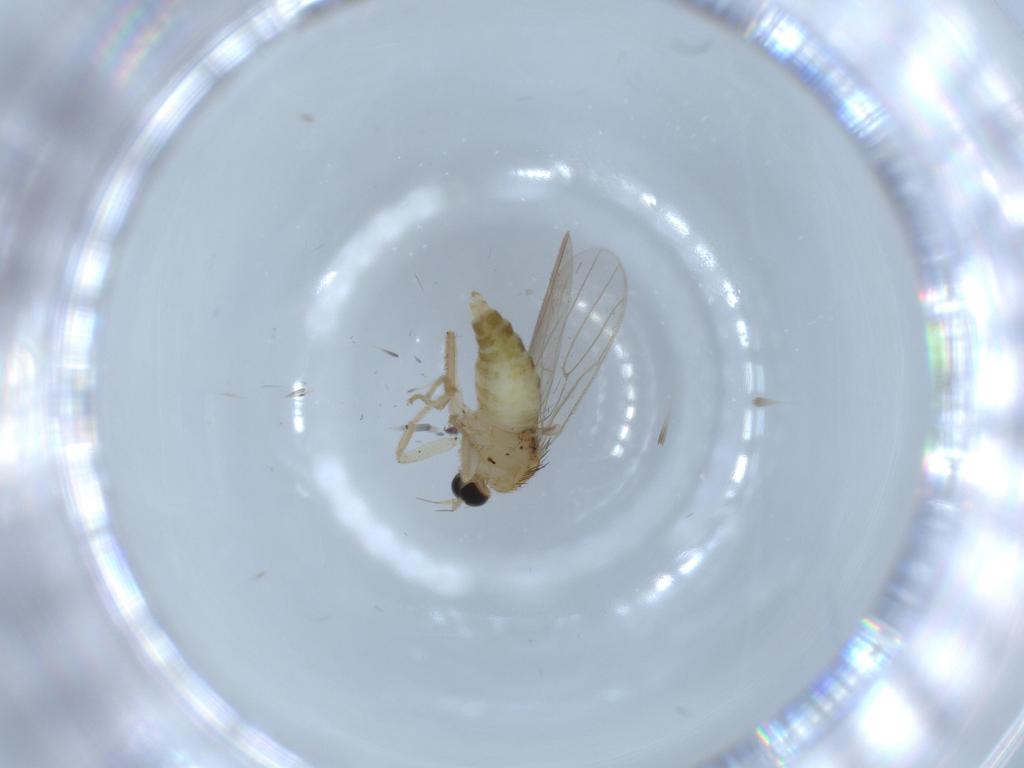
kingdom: Animalia
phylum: Arthropoda
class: Insecta
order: Diptera
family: Hybotidae
